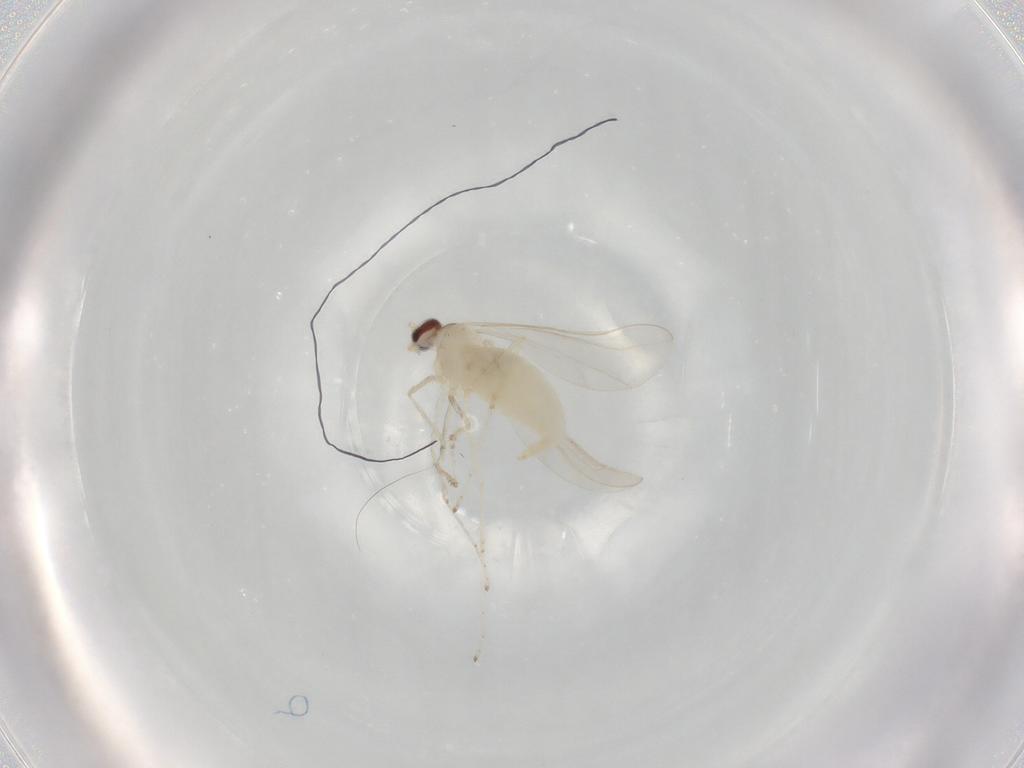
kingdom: Animalia
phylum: Arthropoda
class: Insecta
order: Diptera
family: Cecidomyiidae
